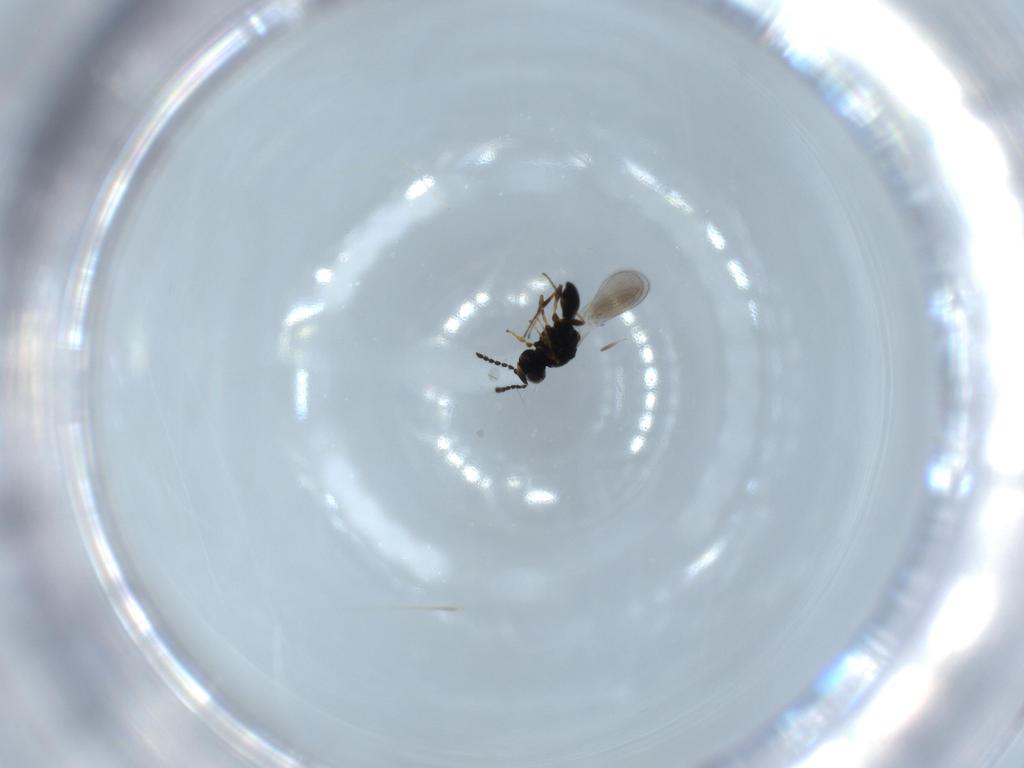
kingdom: Animalia
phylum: Arthropoda
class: Insecta
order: Hymenoptera
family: Platygastridae
